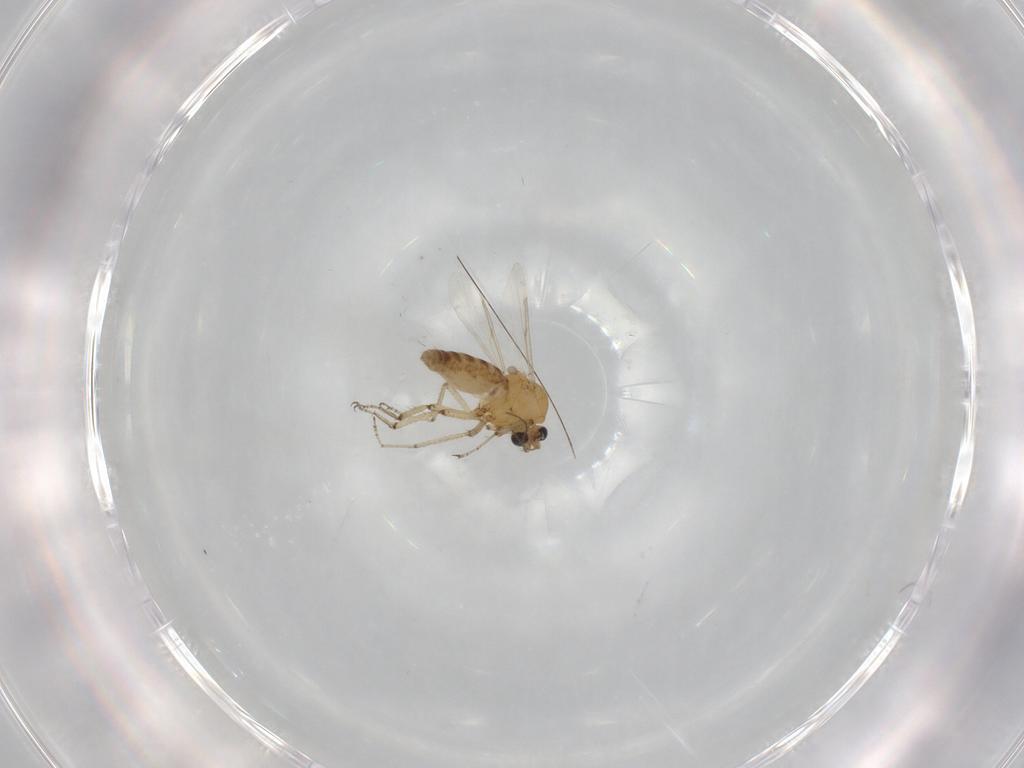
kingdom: Animalia
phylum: Arthropoda
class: Insecta
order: Diptera
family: Ceratopogonidae
